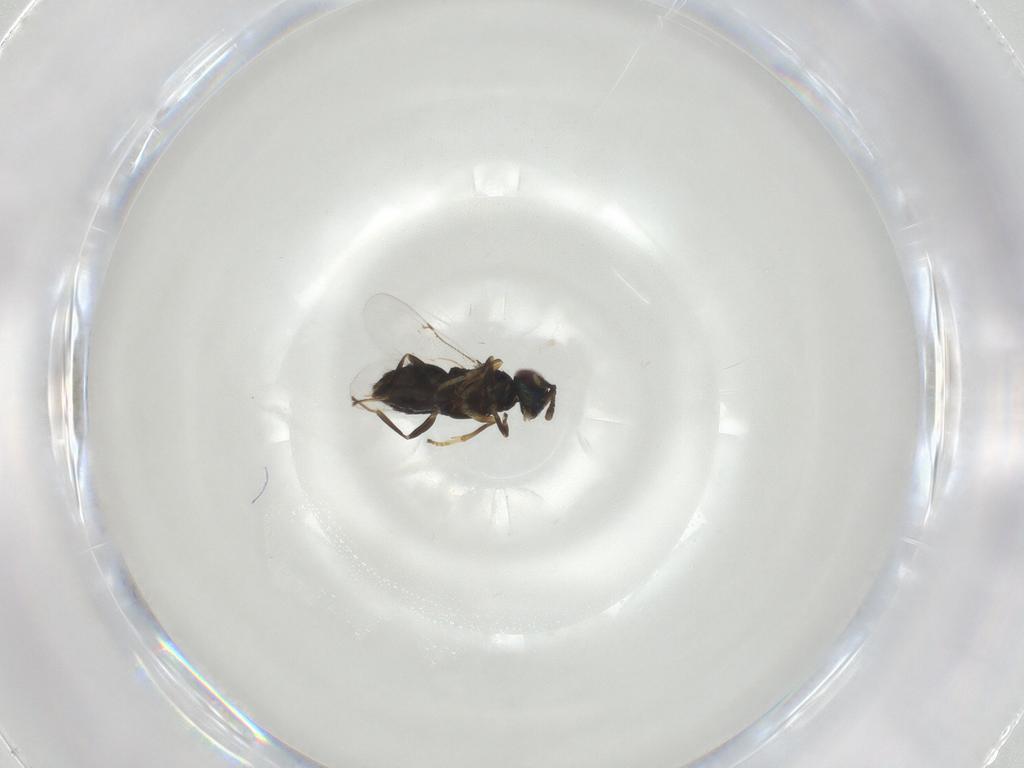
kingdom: Animalia
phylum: Arthropoda
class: Insecta
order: Hymenoptera
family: Encyrtidae
